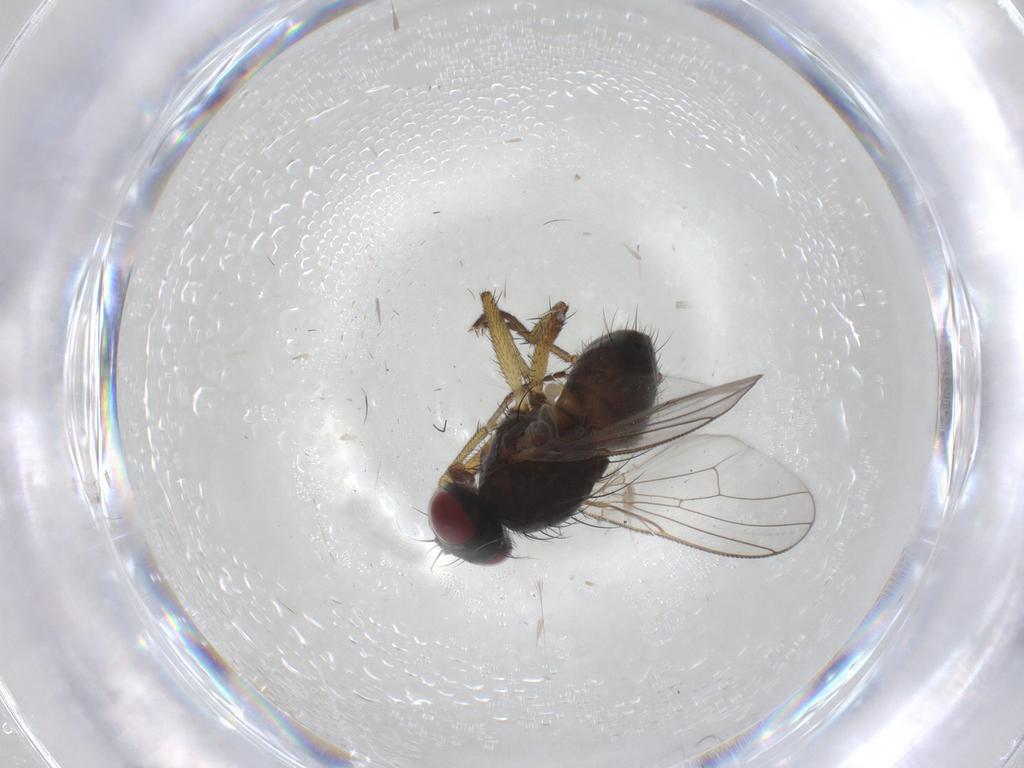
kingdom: Animalia
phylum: Arthropoda
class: Insecta
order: Diptera
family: Muscidae
